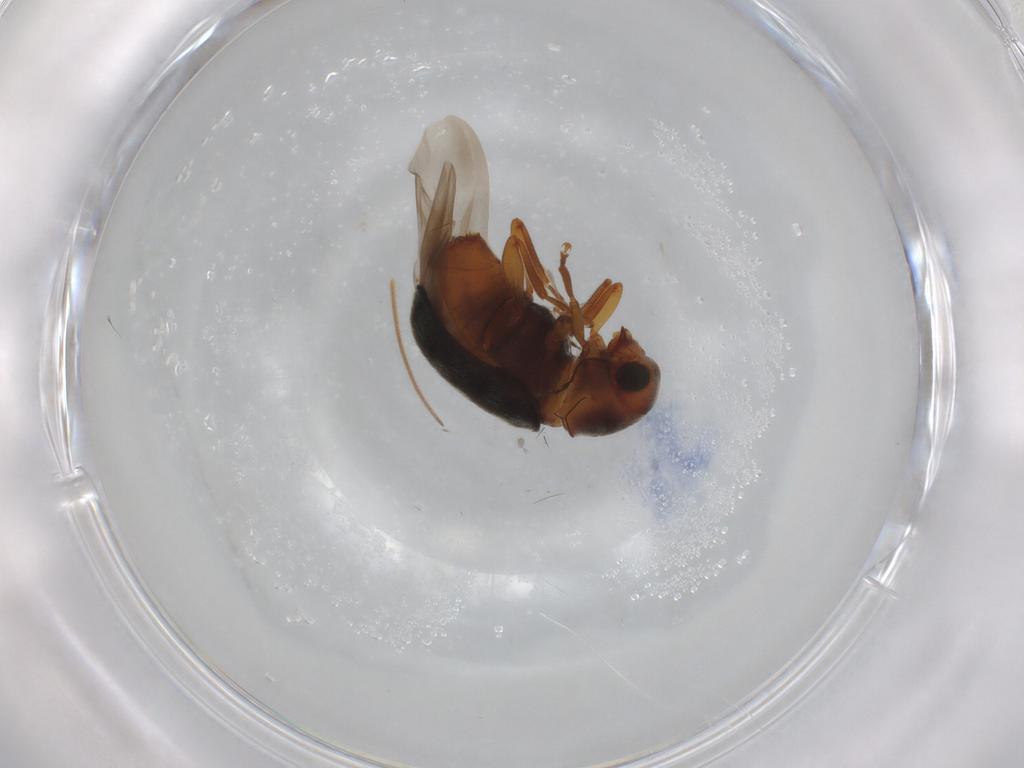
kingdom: Animalia
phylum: Arthropoda
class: Insecta
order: Coleoptera
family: Anthribidae
